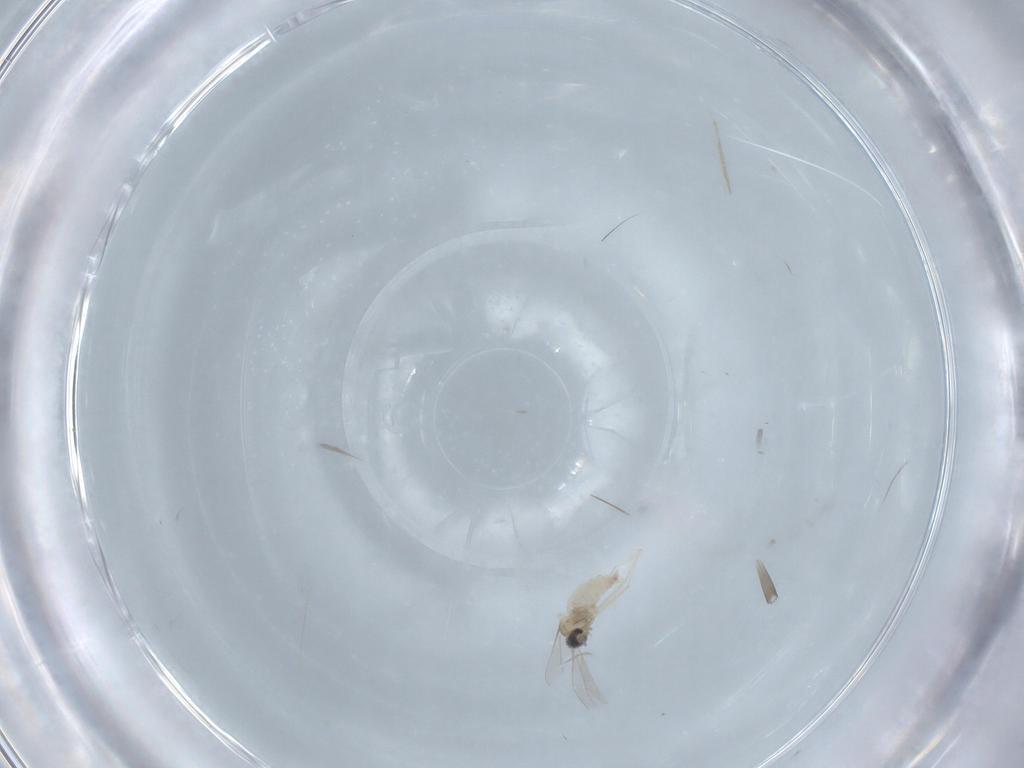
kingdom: Animalia
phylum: Arthropoda
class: Insecta
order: Diptera
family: Cecidomyiidae
